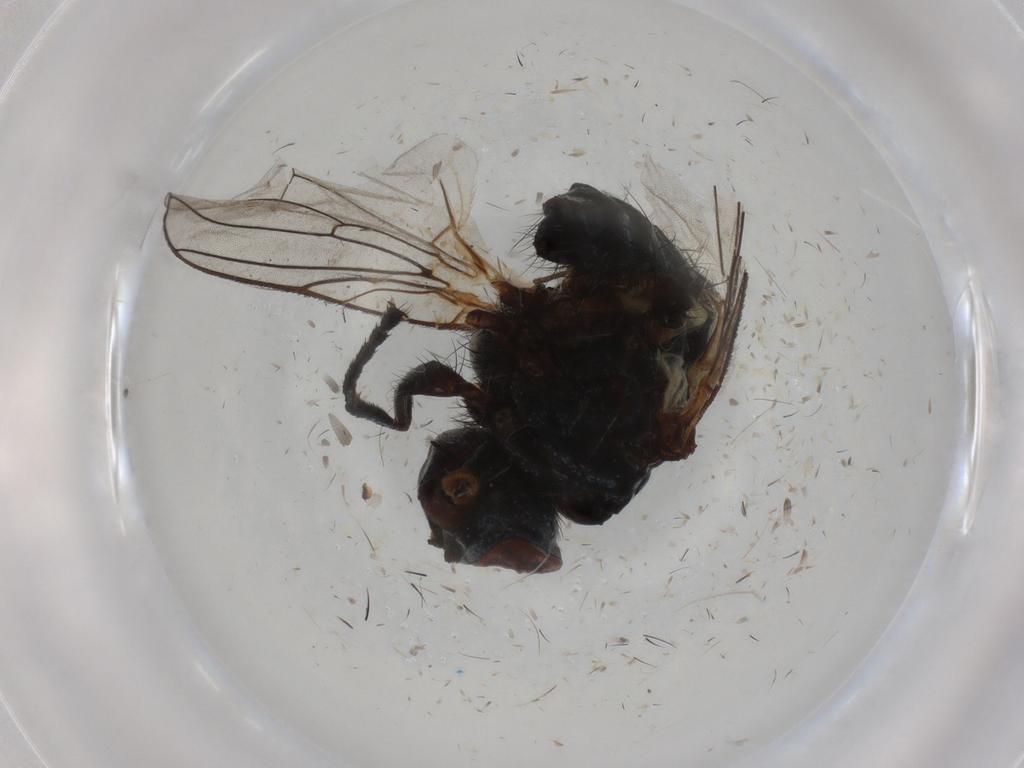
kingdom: Animalia
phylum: Arthropoda
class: Insecta
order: Diptera
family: Anthomyiidae
